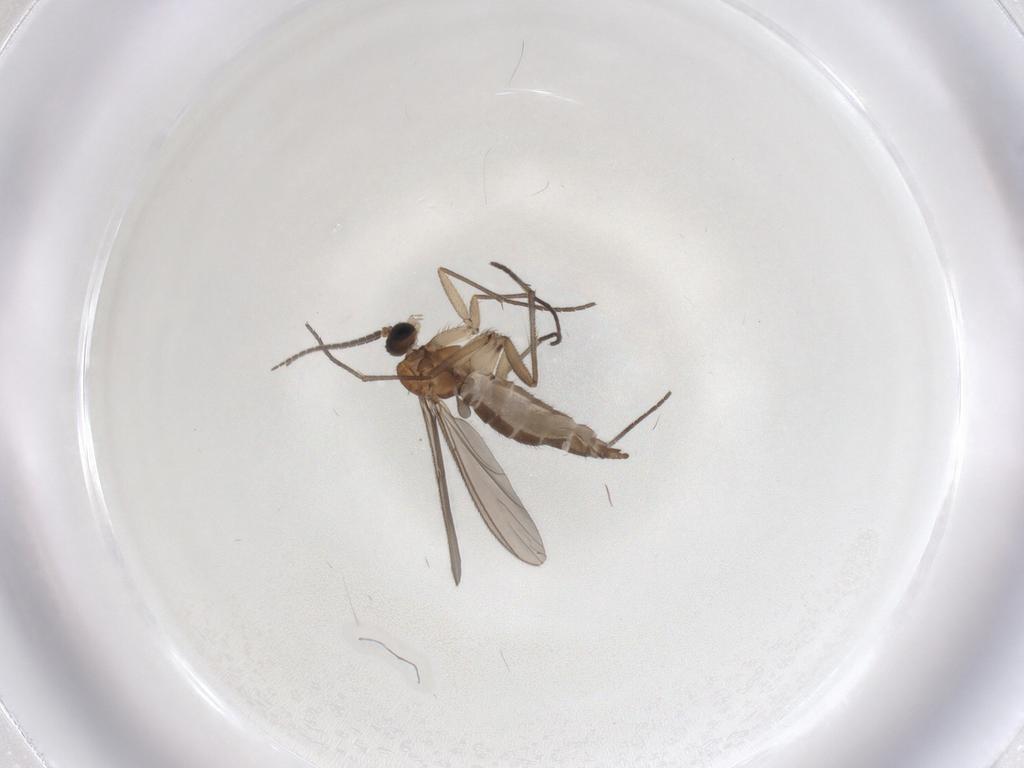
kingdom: Animalia
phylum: Arthropoda
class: Insecta
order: Diptera
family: Sciaridae
